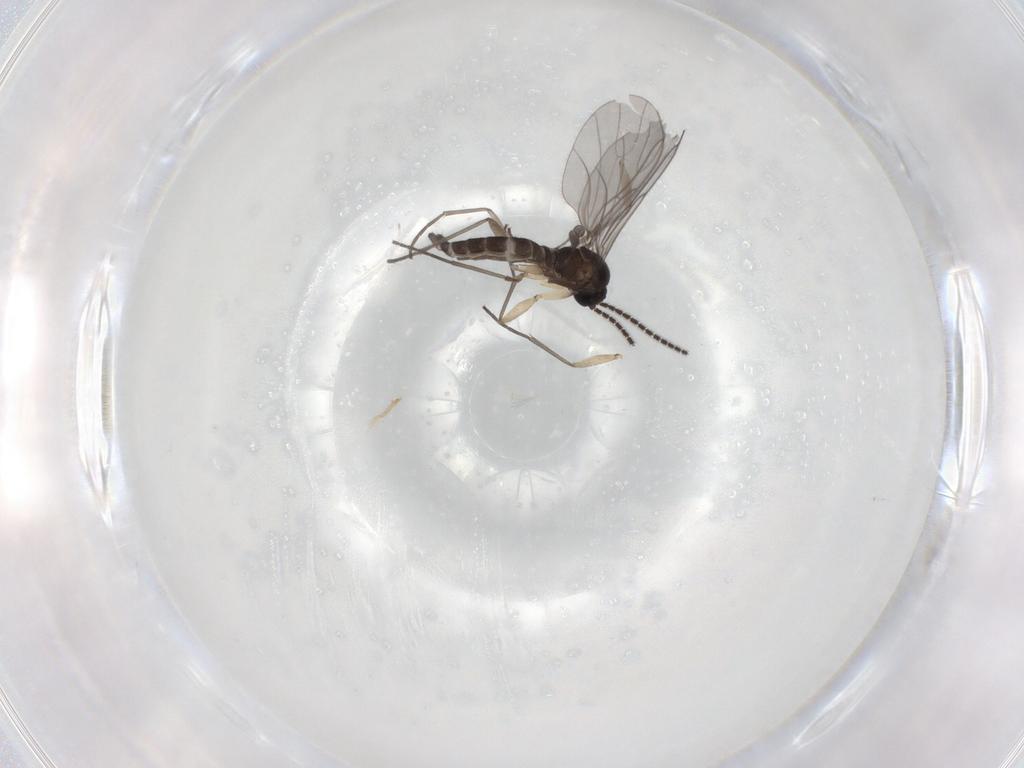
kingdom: Animalia
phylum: Arthropoda
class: Insecta
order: Diptera
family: Sciaridae
